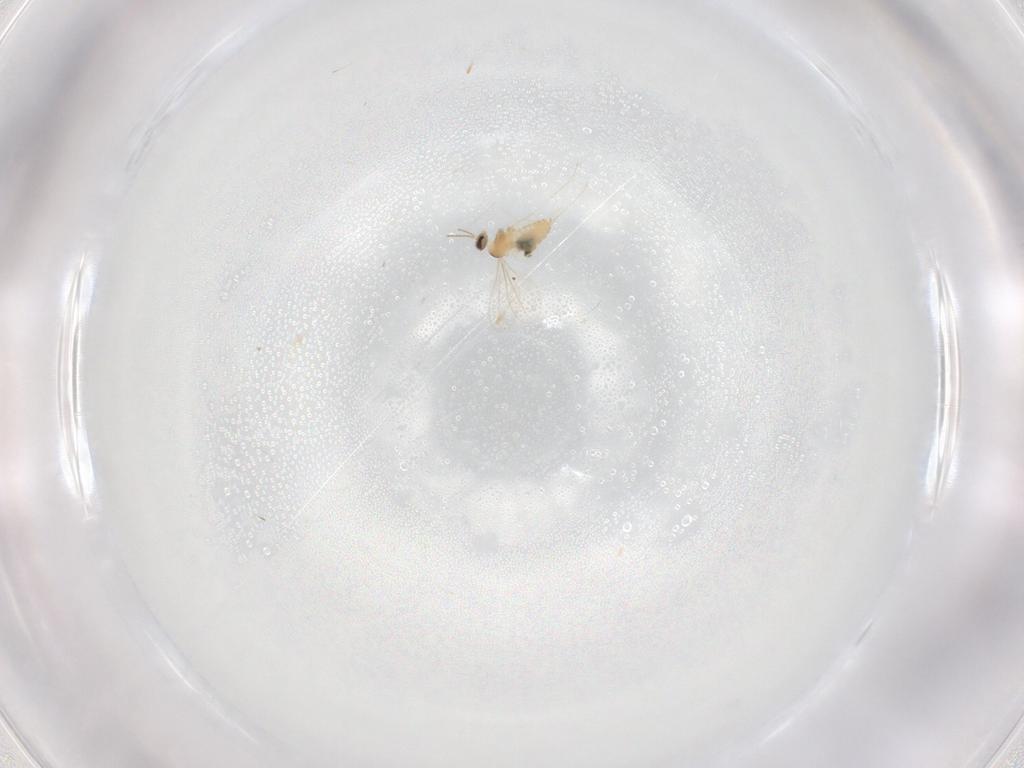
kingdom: Animalia
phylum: Arthropoda
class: Insecta
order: Diptera
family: Cecidomyiidae
